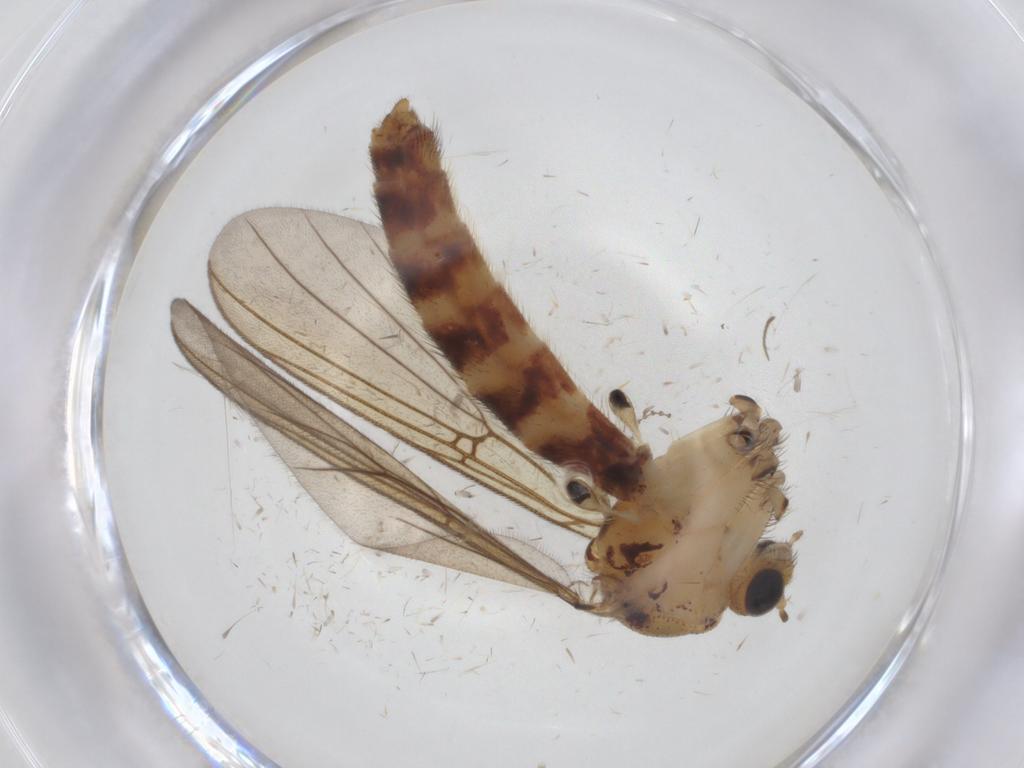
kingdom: Animalia
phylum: Arthropoda
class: Insecta
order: Diptera
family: Mycetophilidae
